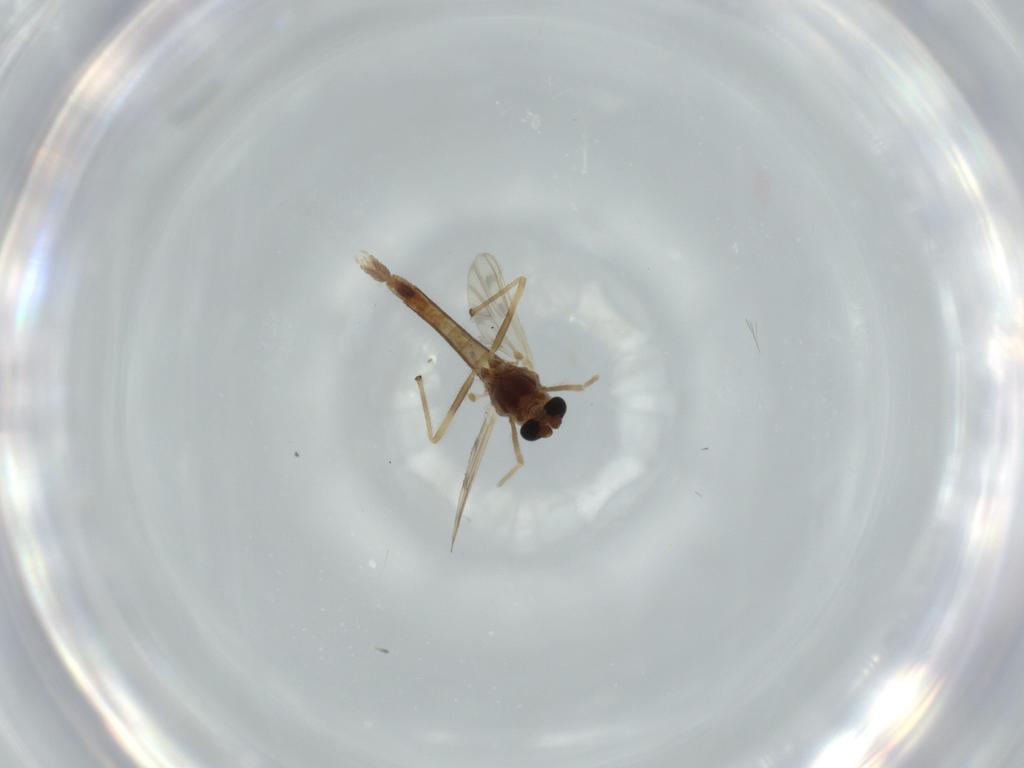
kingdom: Animalia
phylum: Arthropoda
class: Insecta
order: Diptera
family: Chironomidae
